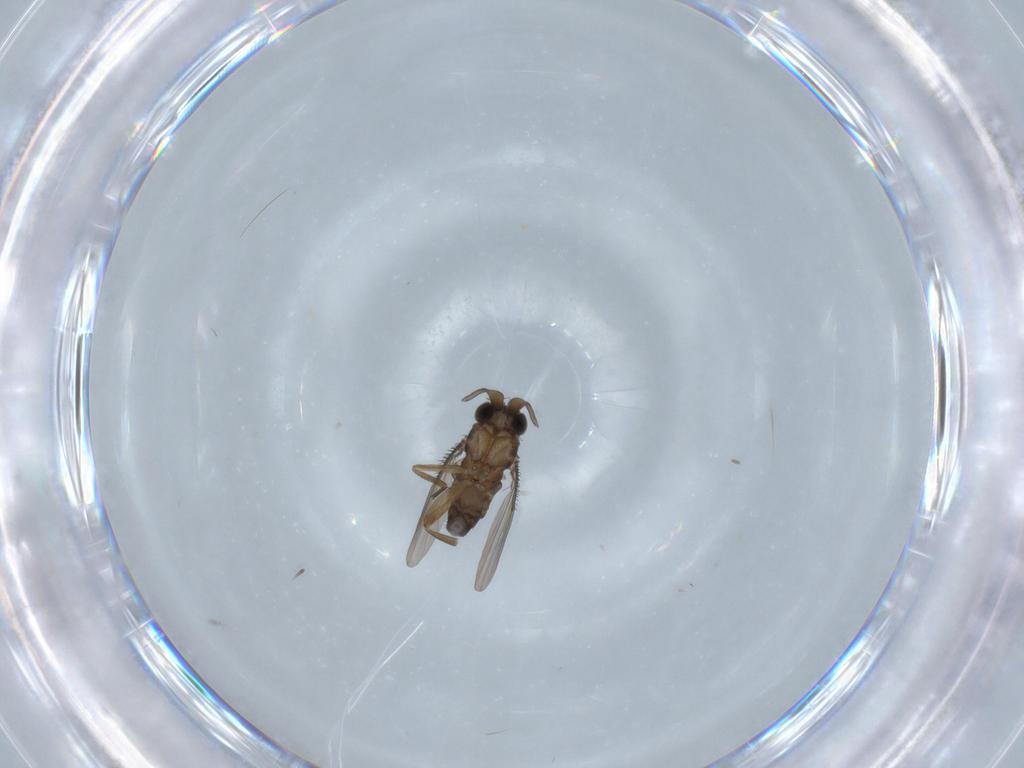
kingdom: Animalia
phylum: Arthropoda
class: Insecta
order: Diptera
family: Phoridae
